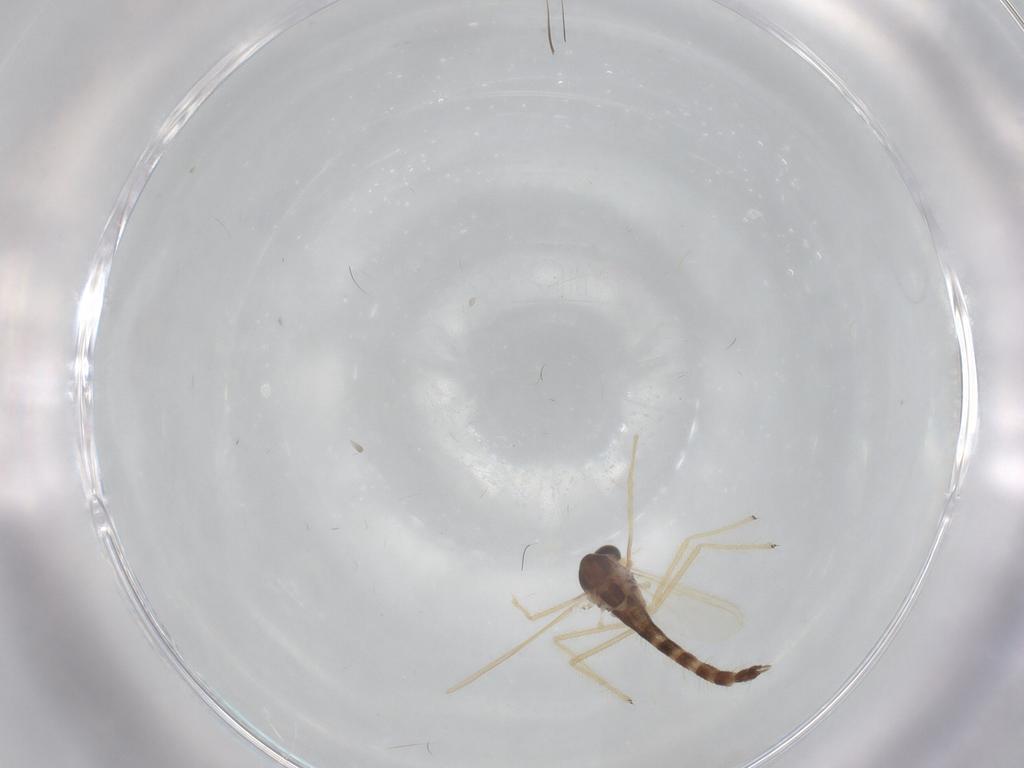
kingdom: Animalia
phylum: Arthropoda
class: Insecta
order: Diptera
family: Chironomidae
